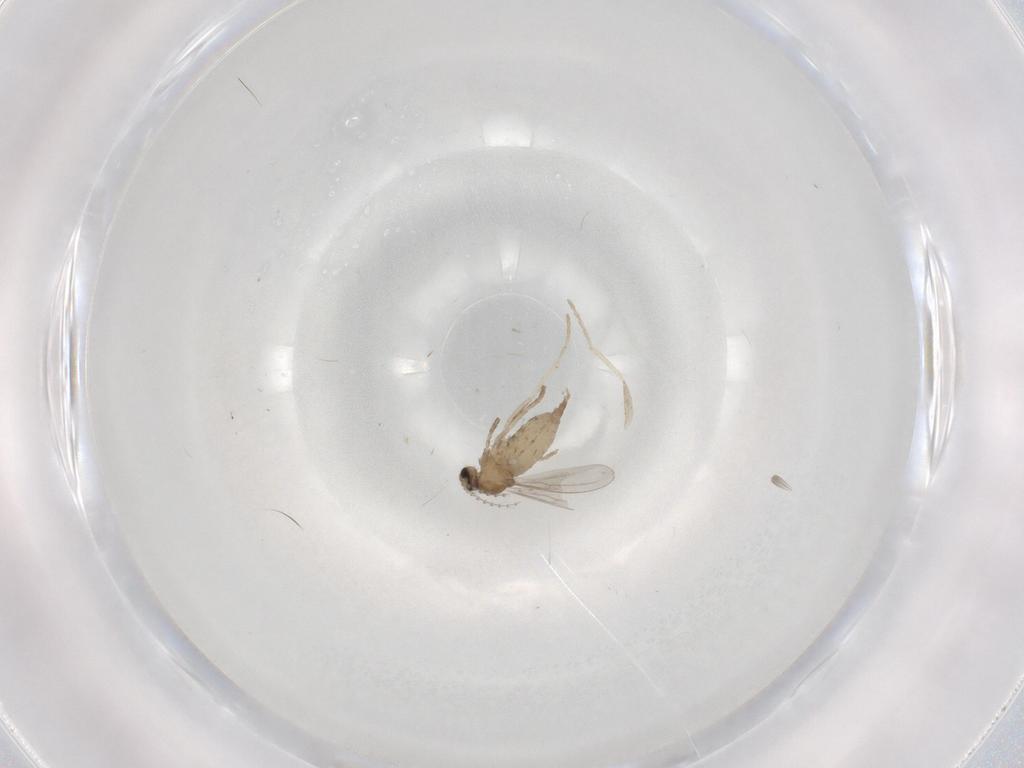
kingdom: Animalia
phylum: Arthropoda
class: Insecta
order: Diptera
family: Cecidomyiidae
